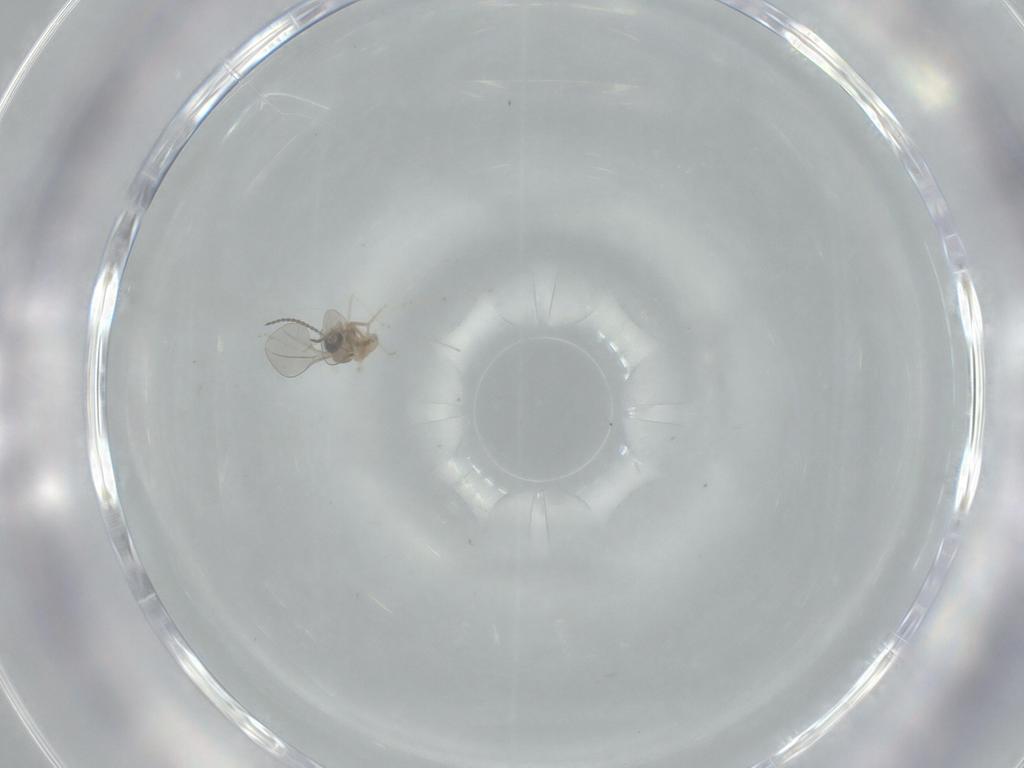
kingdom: Animalia
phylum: Arthropoda
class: Insecta
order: Diptera
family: Cecidomyiidae
